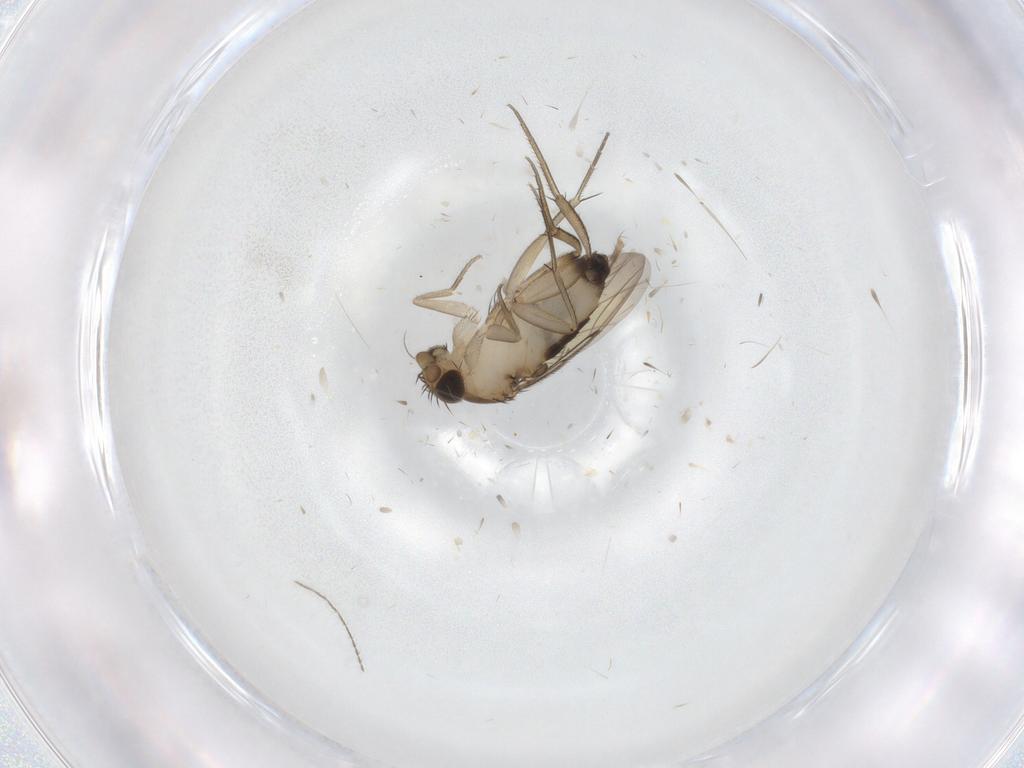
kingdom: Animalia
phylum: Arthropoda
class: Insecta
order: Diptera
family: Phoridae
